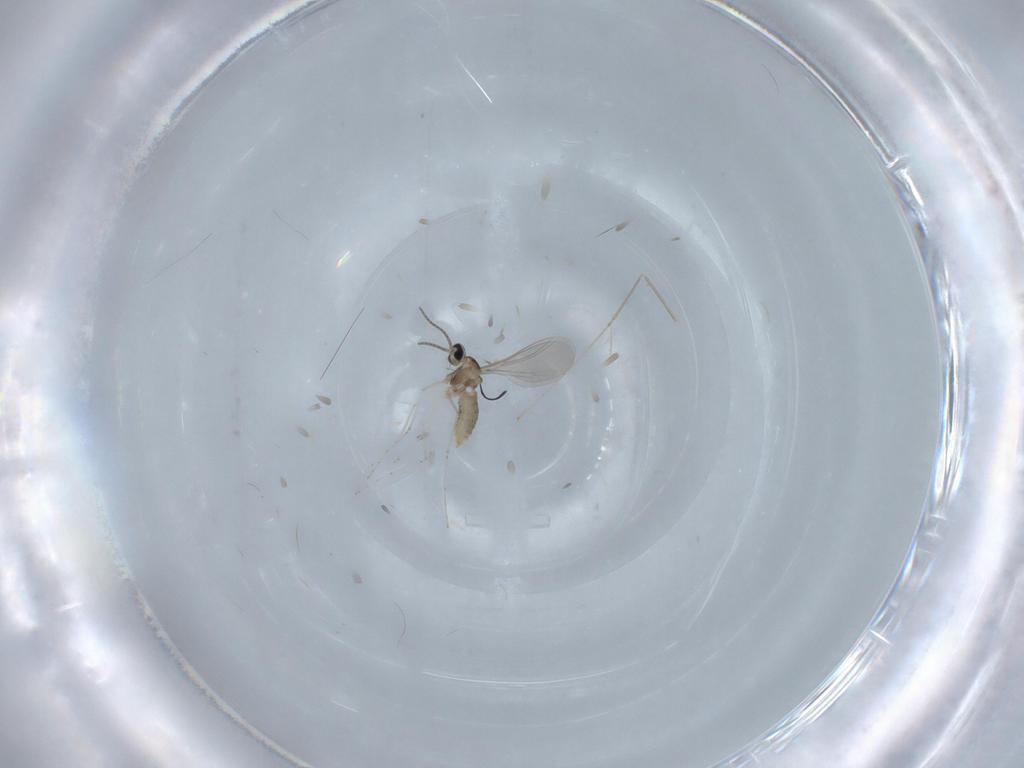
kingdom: Animalia
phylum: Arthropoda
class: Insecta
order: Diptera
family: Cecidomyiidae
